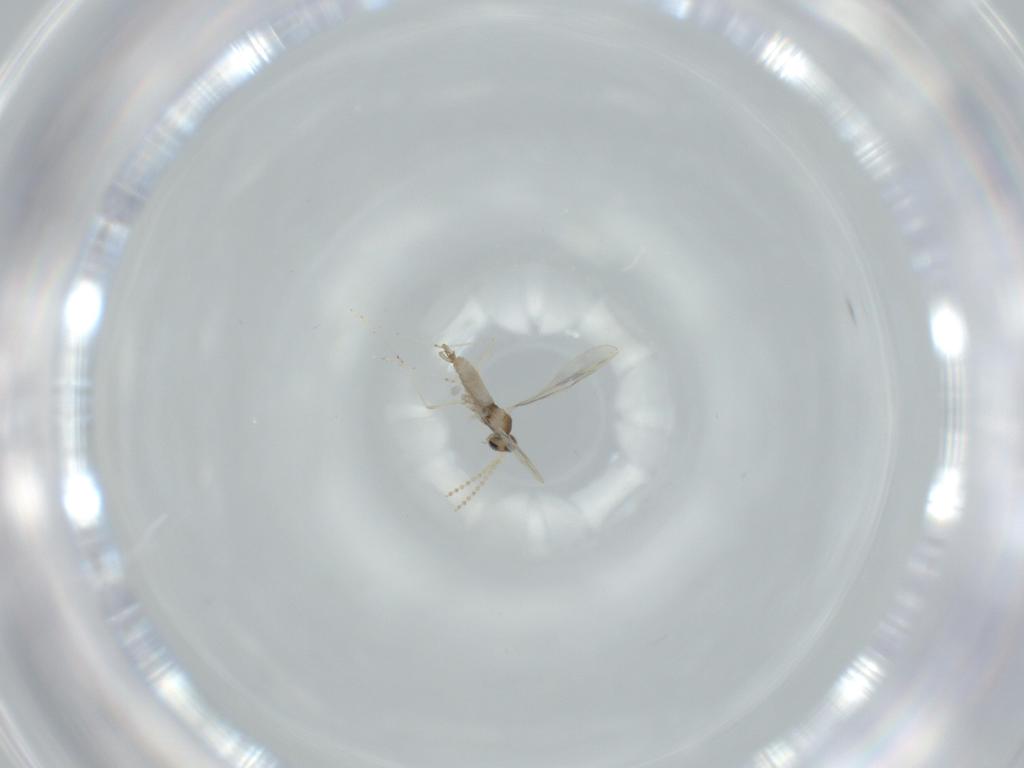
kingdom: Animalia
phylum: Arthropoda
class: Insecta
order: Diptera
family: Cecidomyiidae
